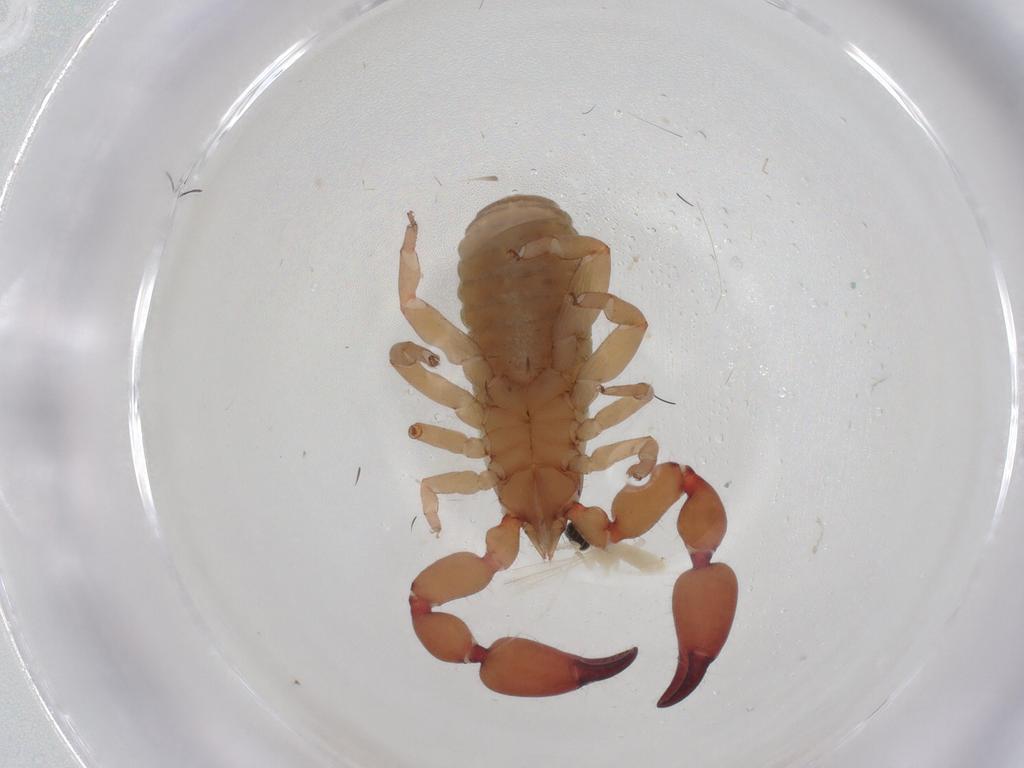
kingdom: Animalia
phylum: Arthropoda
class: Arachnida
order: Pseudoscorpiones
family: Atemnidae
